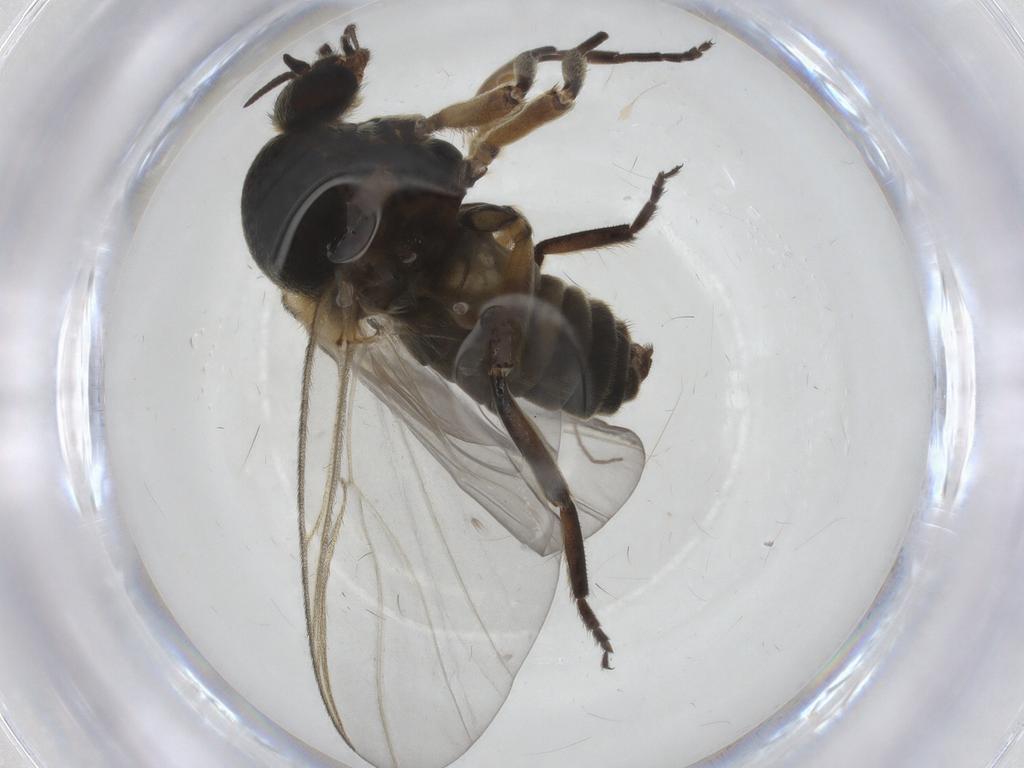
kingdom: Animalia
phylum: Arthropoda
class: Insecta
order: Diptera
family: Simuliidae
